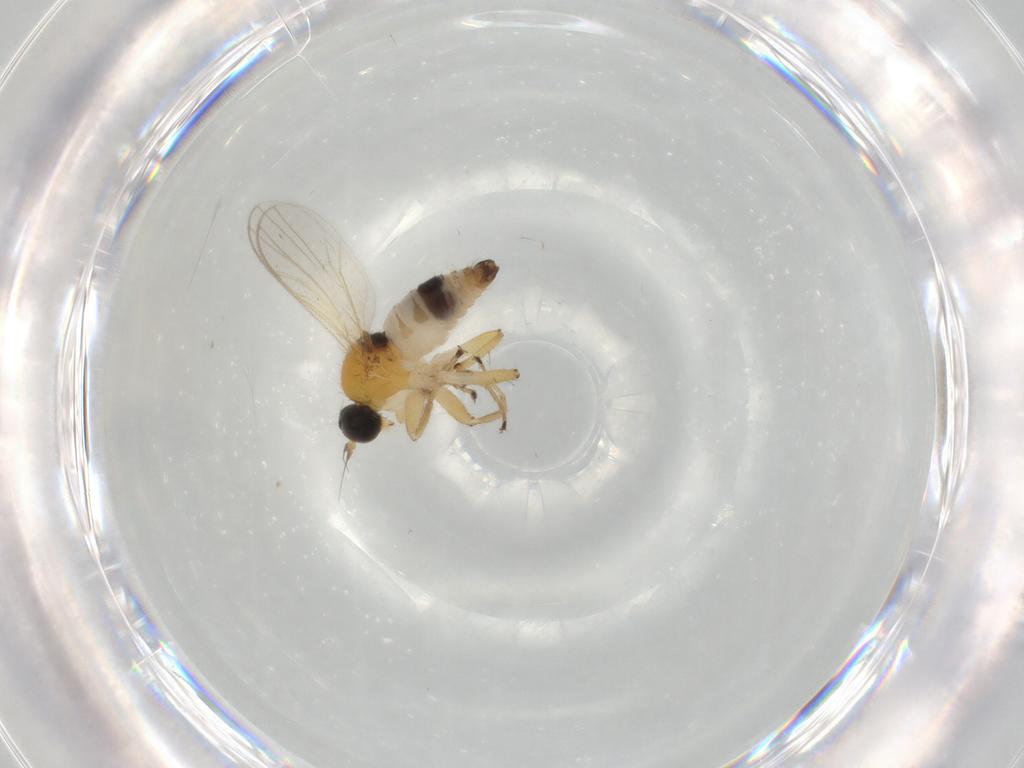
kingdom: Animalia
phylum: Arthropoda
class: Insecta
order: Diptera
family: Hybotidae
